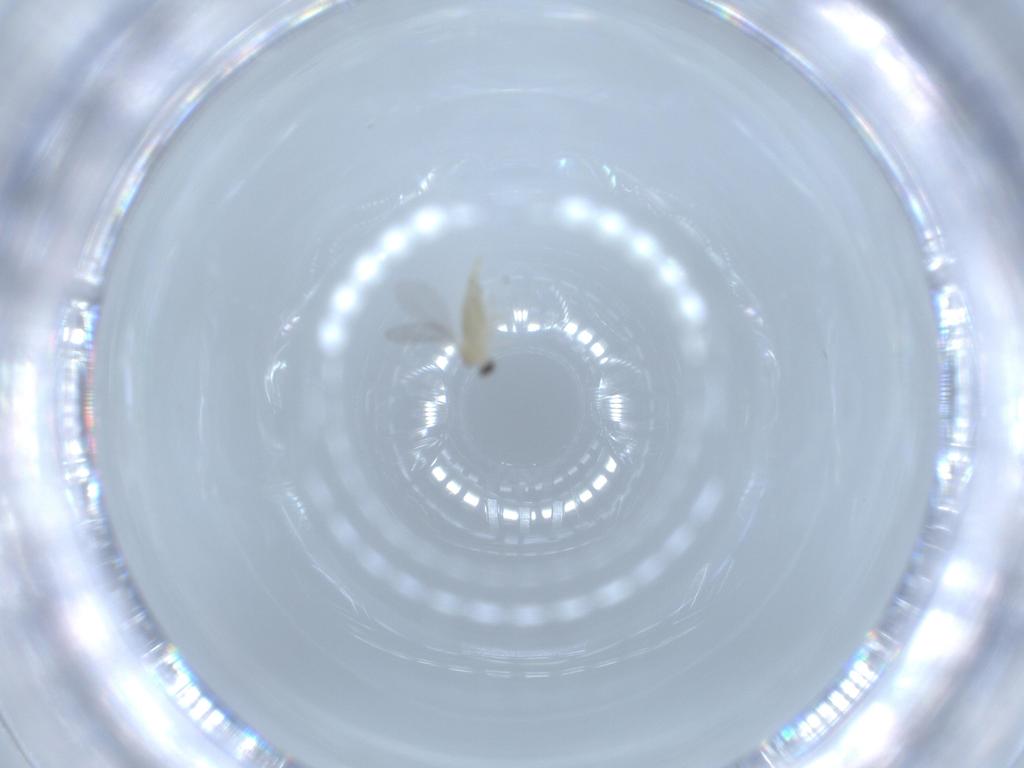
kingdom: Animalia
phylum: Arthropoda
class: Insecta
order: Diptera
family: Cecidomyiidae
